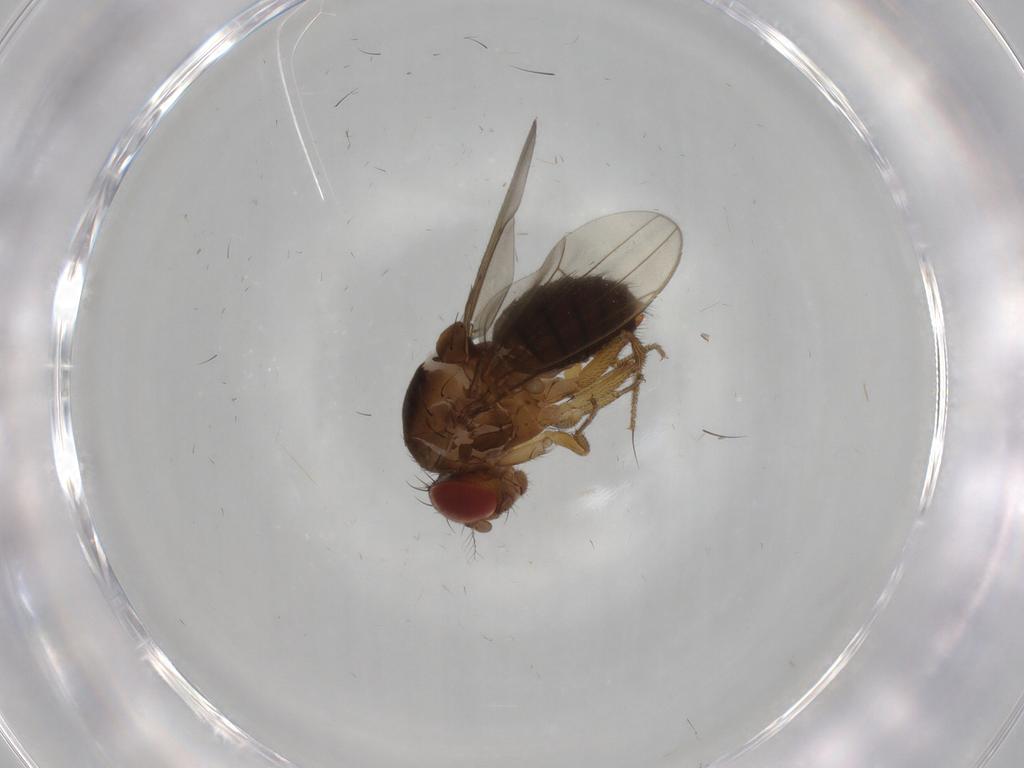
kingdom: Animalia
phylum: Arthropoda
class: Insecta
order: Diptera
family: Drosophilidae
